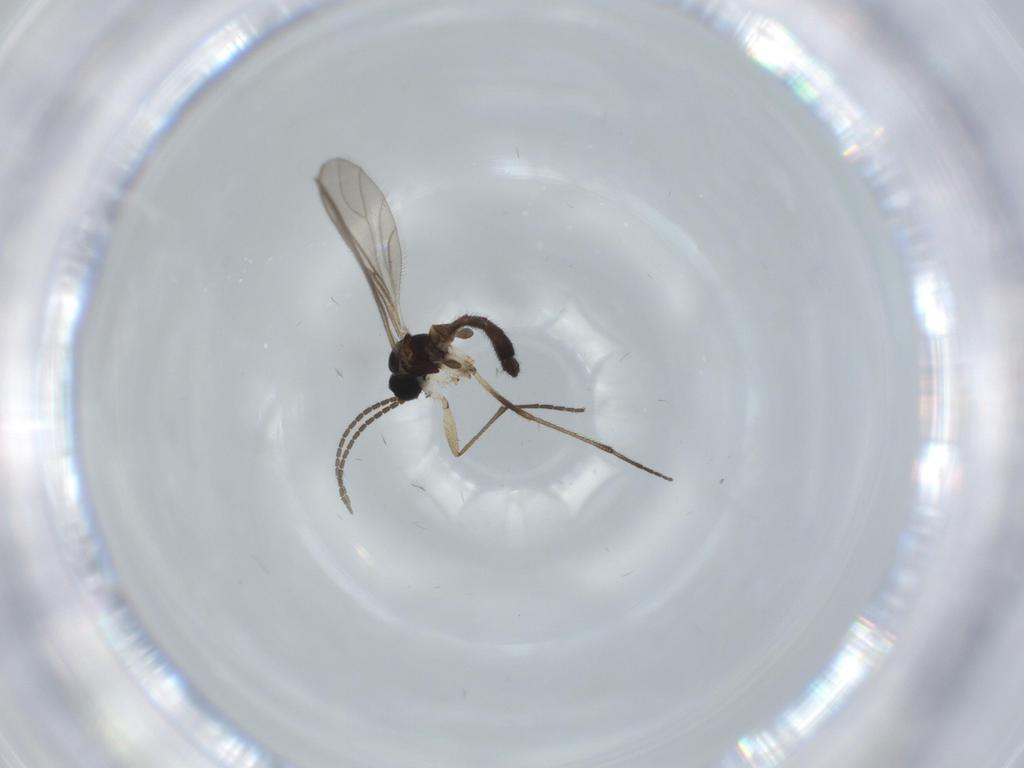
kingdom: Animalia
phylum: Arthropoda
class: Insecta
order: Diptera
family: Sciaridae
